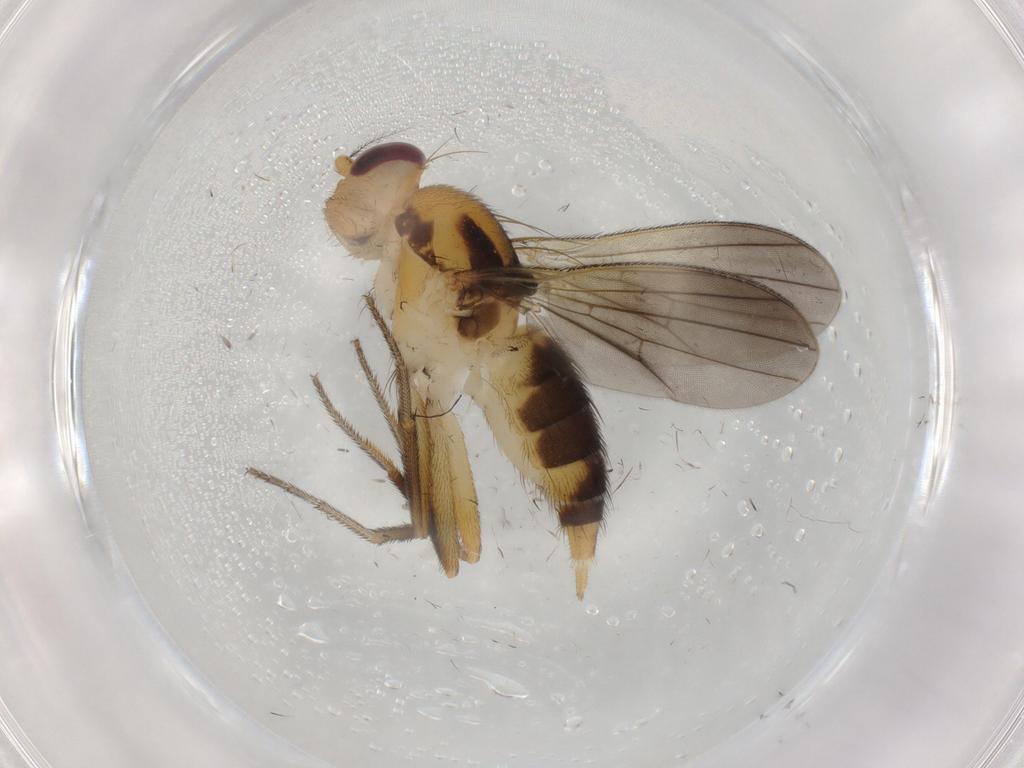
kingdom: Animalia
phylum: Arthropoda
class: Insecta
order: Diptera
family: Clusiidae
